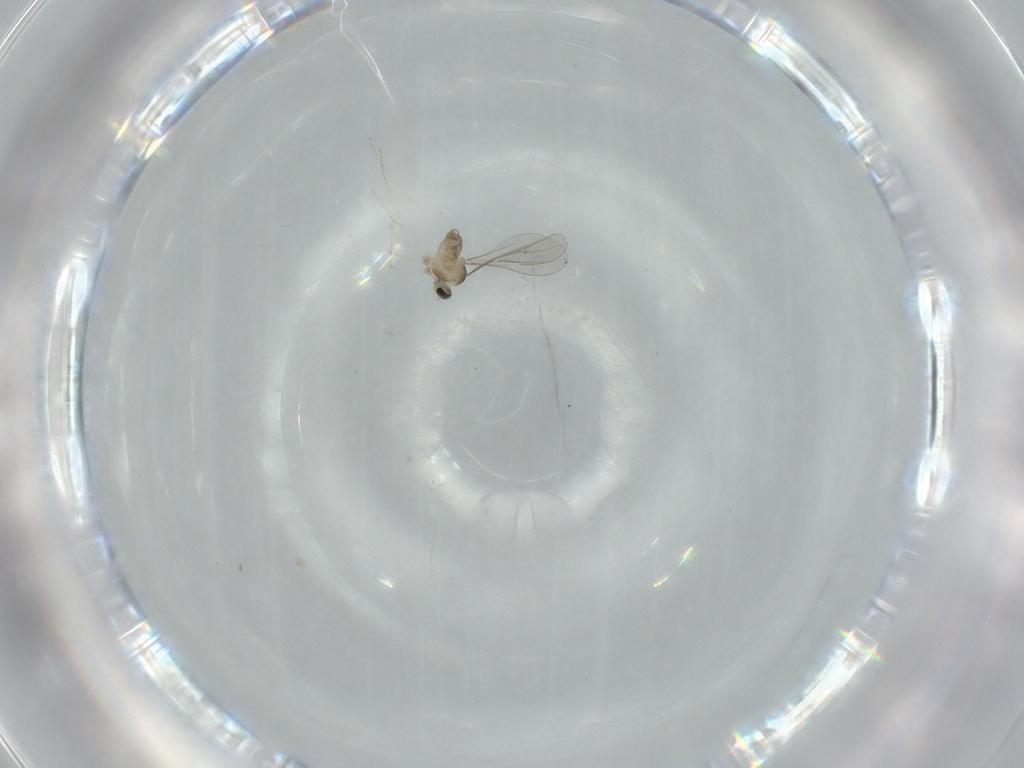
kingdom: Animalia
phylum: Arthropoda
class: Insecta
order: Diptera
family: Cecidomyiidae
